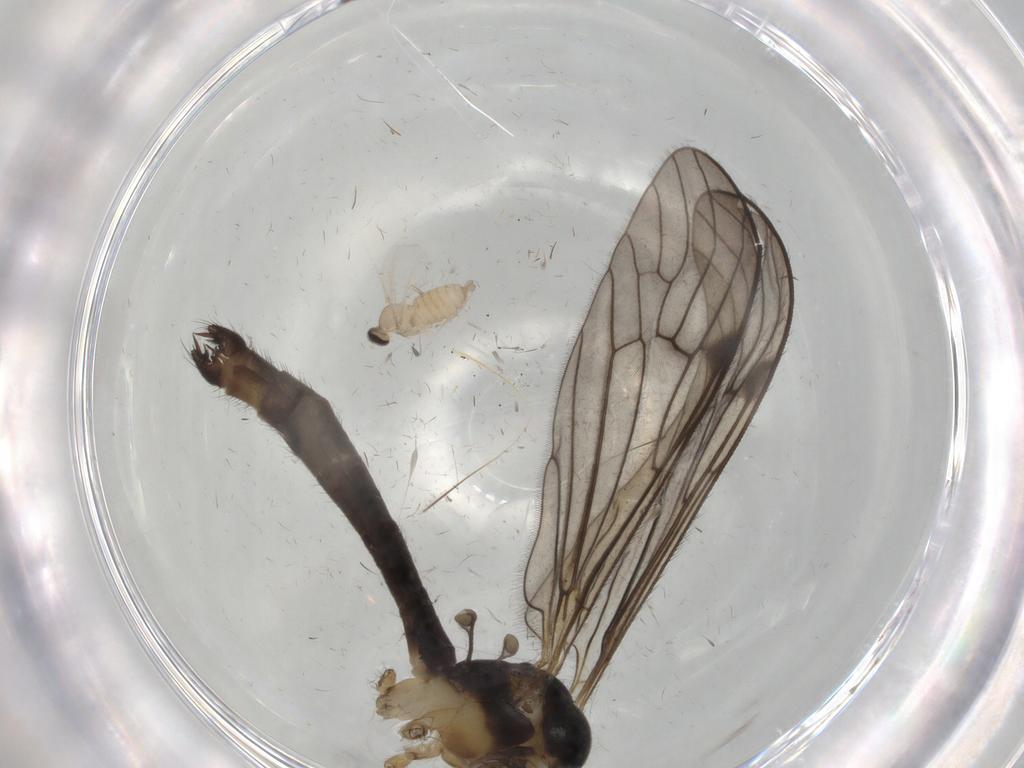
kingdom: Animalia
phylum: Arthropoda
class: Insecta
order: Diptera
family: Limoniidae
